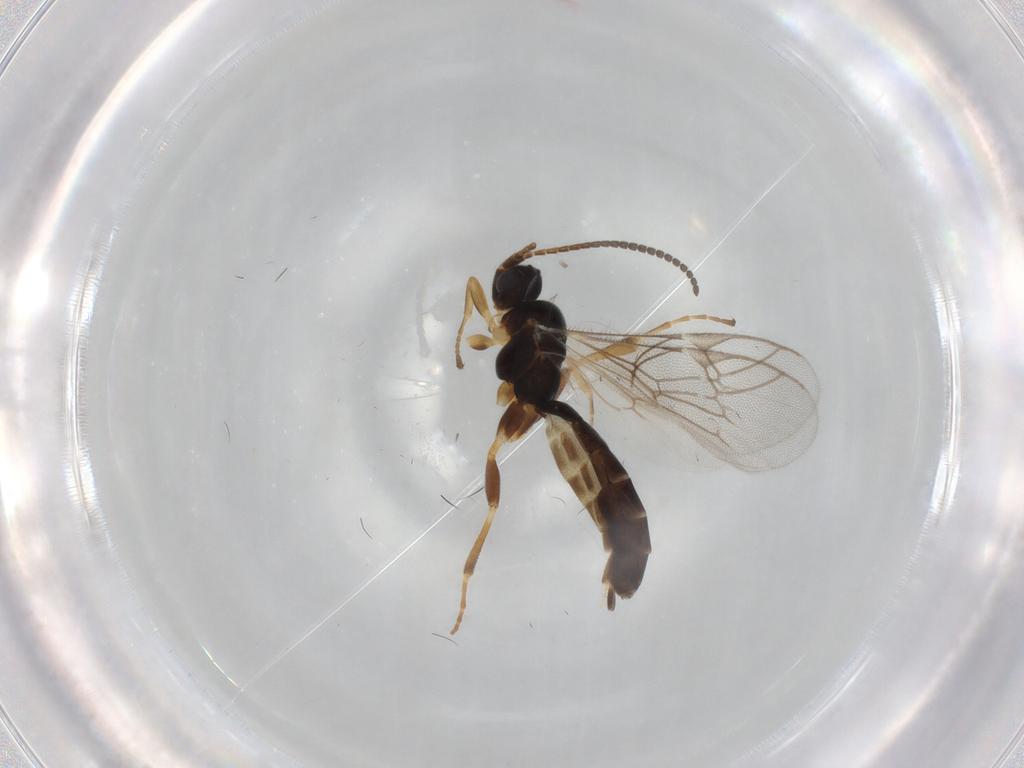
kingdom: Animalia
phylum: Arthropoda
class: Insecta
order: Hymenoptera
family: Ichneumonidae
